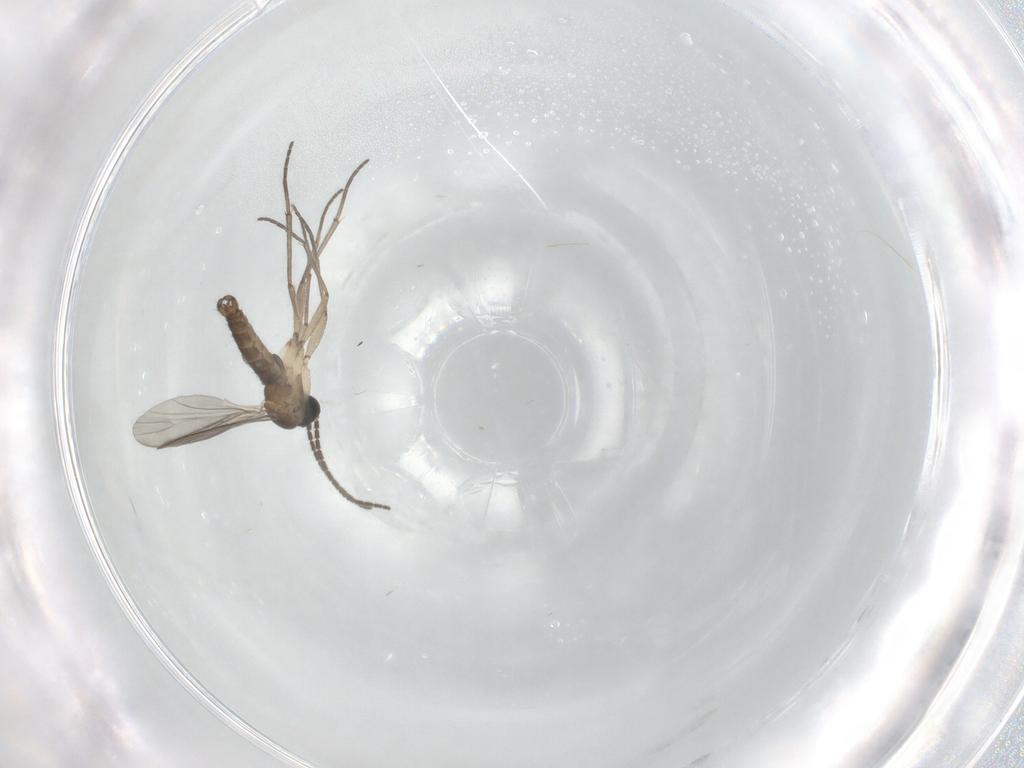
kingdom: Animalia
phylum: Arthropoda
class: Insecta
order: Diptera
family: Sciaridae
